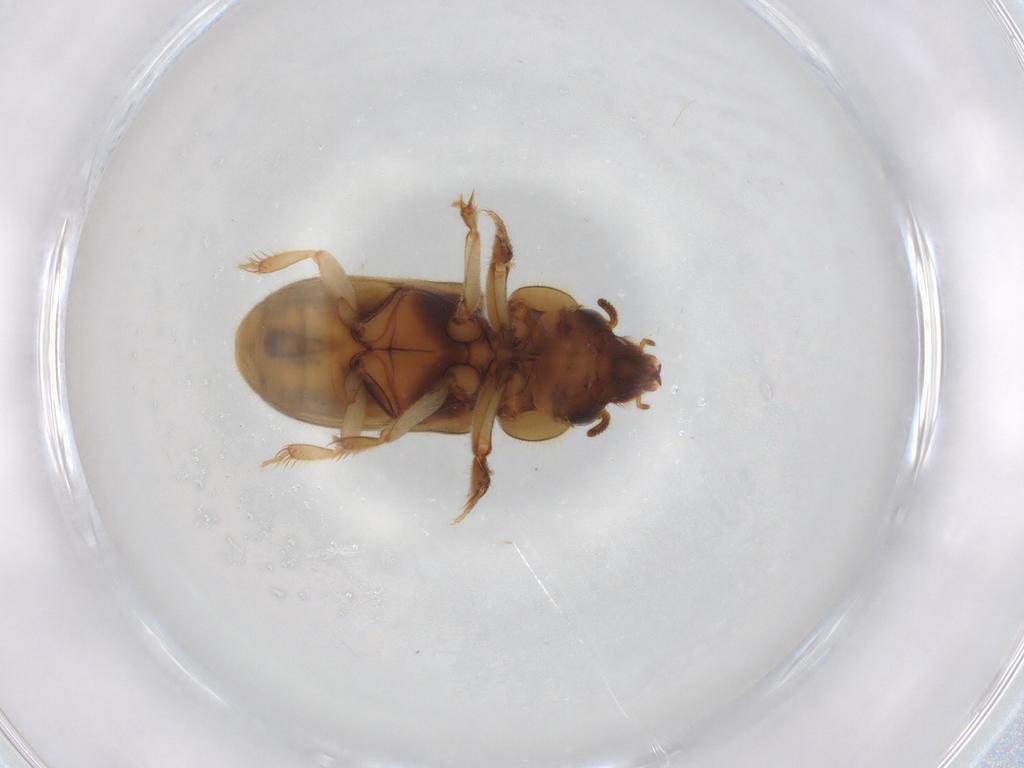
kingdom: Animalia
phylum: Arthropoda
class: Insecta
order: Coleoptera
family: Heteroceridae
